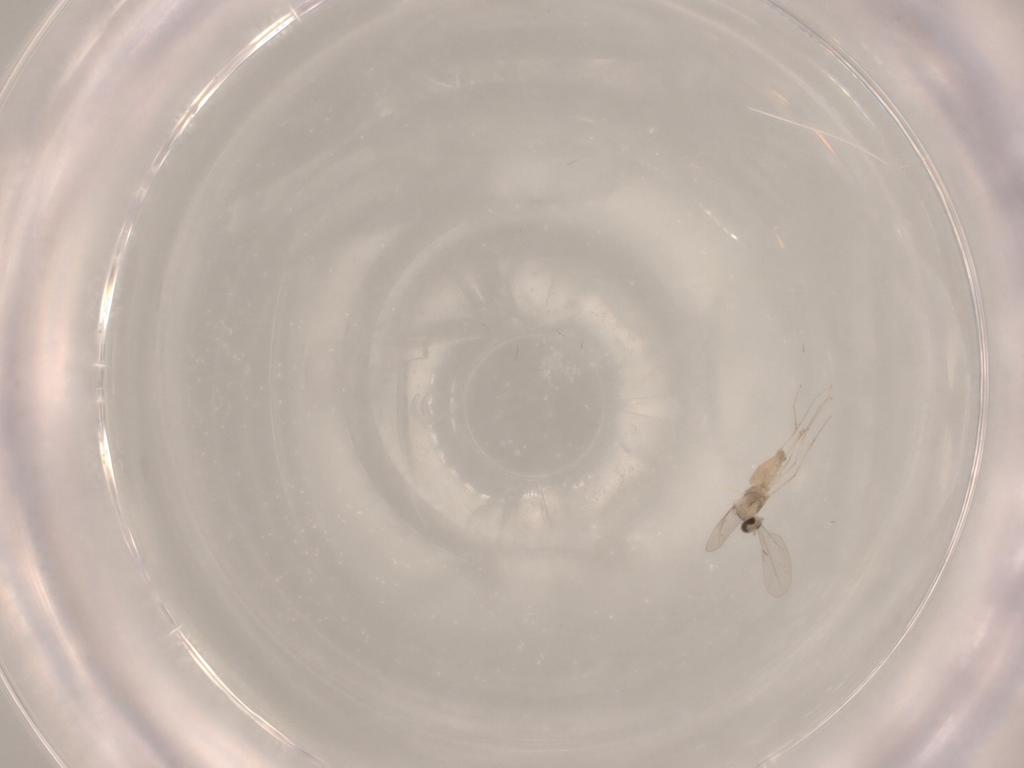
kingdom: Animalia
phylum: Arthropoda
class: Insecta
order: Diptera
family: Cecidomyiidae
